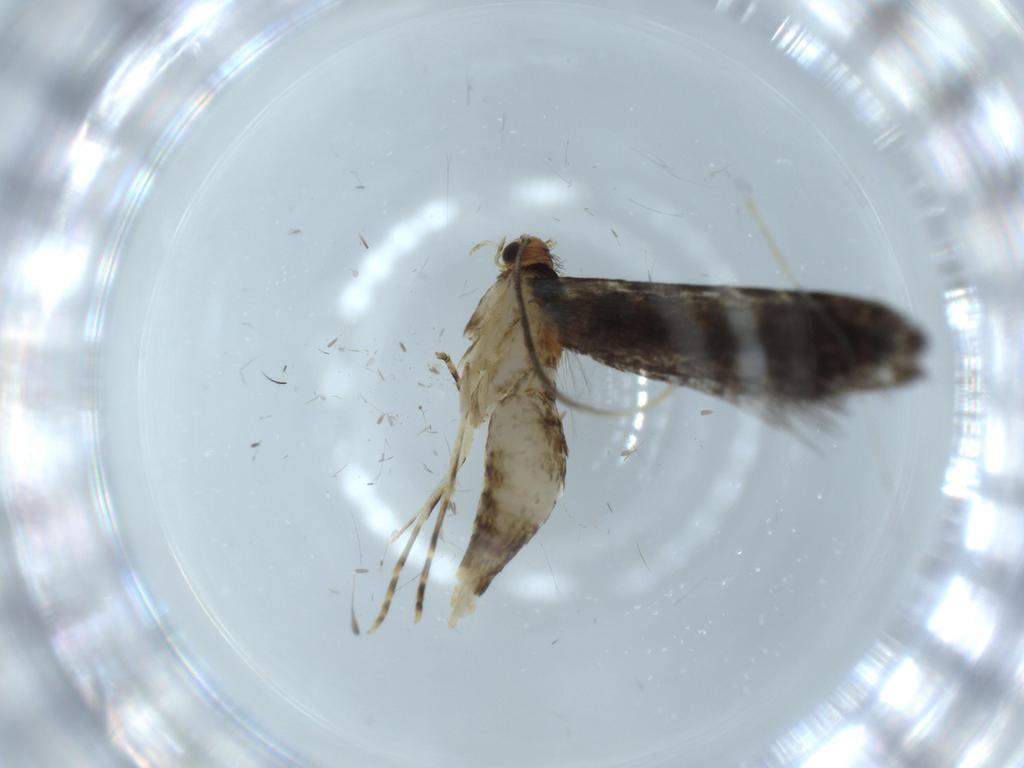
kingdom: Animalia
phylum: Arthropoda
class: Insecta
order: Lepidoptera
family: Tineidae
